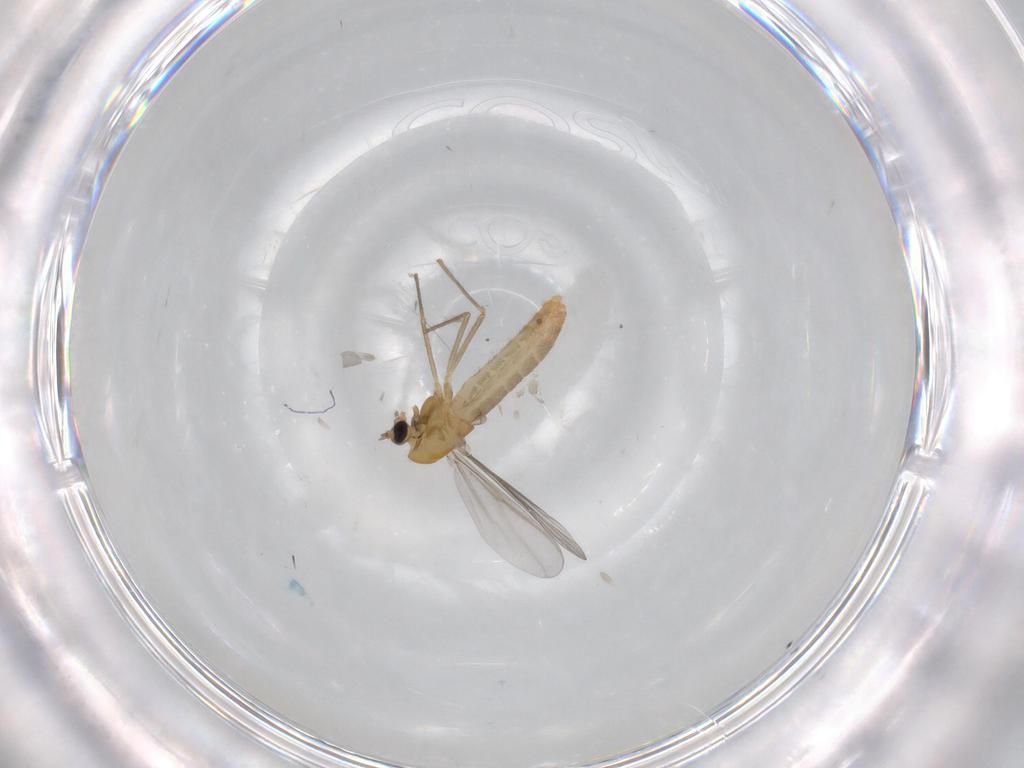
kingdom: Animalia
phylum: Arthropoda
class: Insecta
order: Diptera
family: Chironomidae
